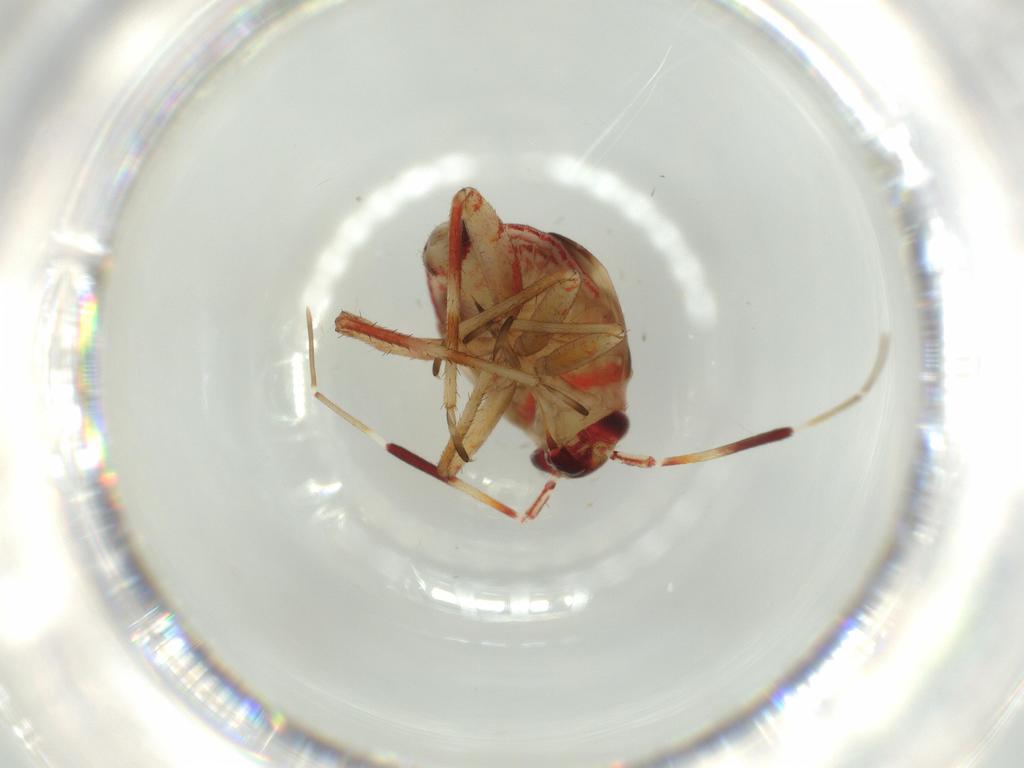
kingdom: Animalia
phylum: Arthropoda
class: Insecta
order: Hemiptera
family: Miridae
